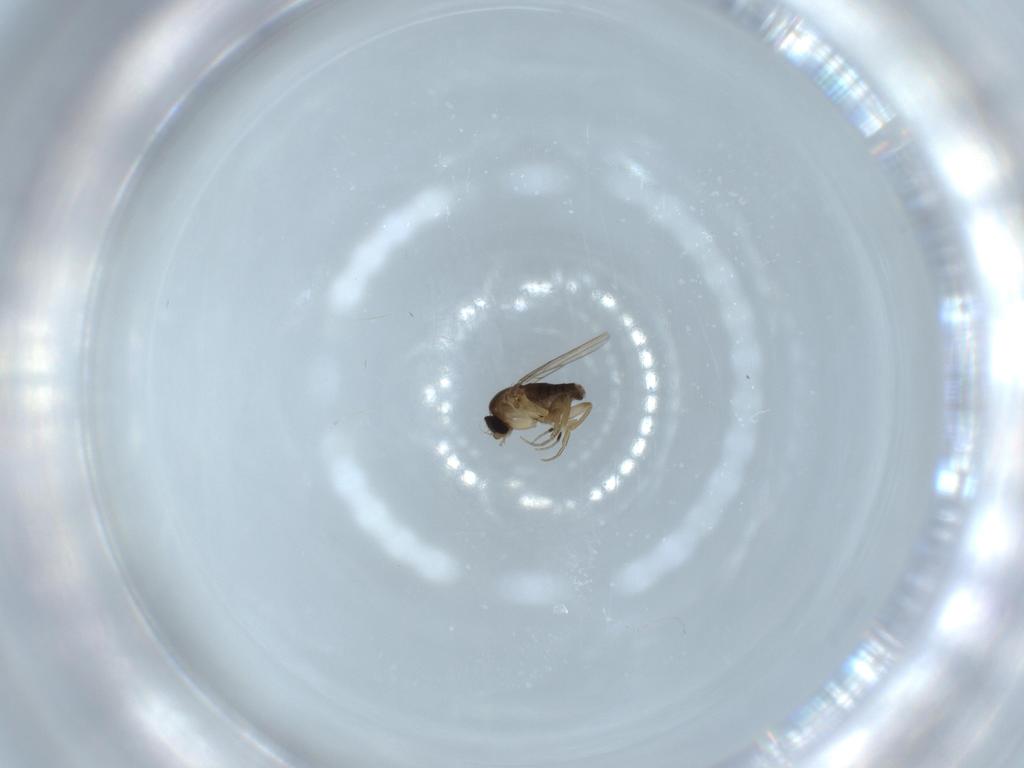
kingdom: Animalia
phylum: Arthropoda
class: Insecta
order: Diptera
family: Phoridae
